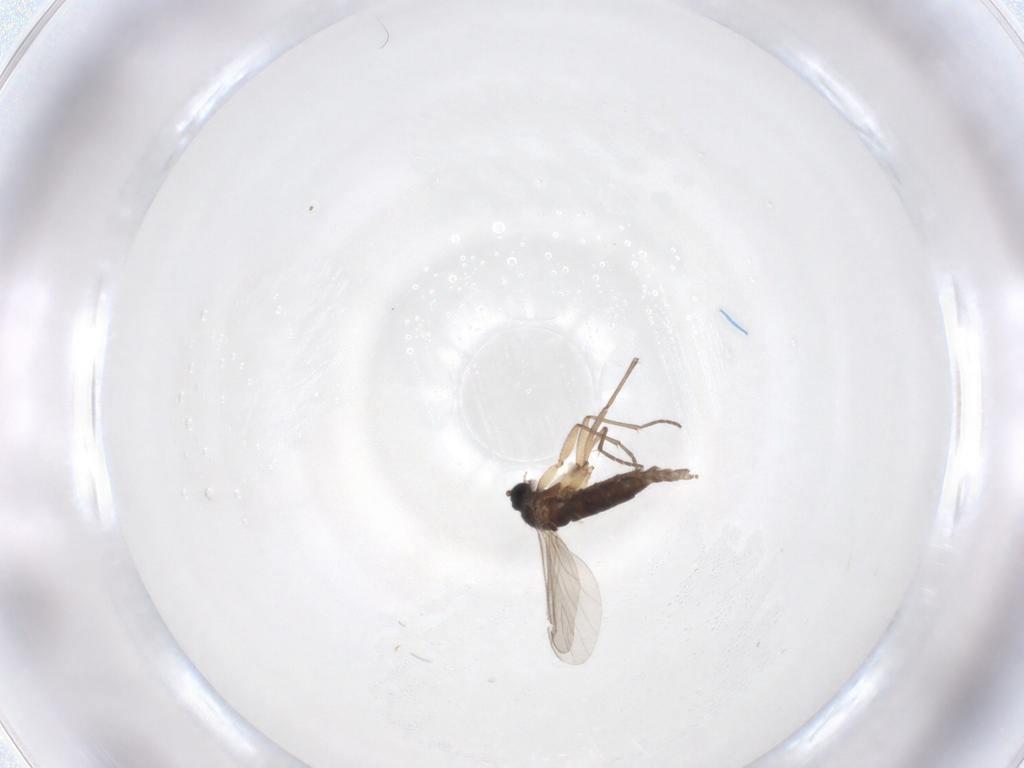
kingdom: Animalia
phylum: Arthropoda
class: Insecta
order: Diptera
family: Sciaridae
